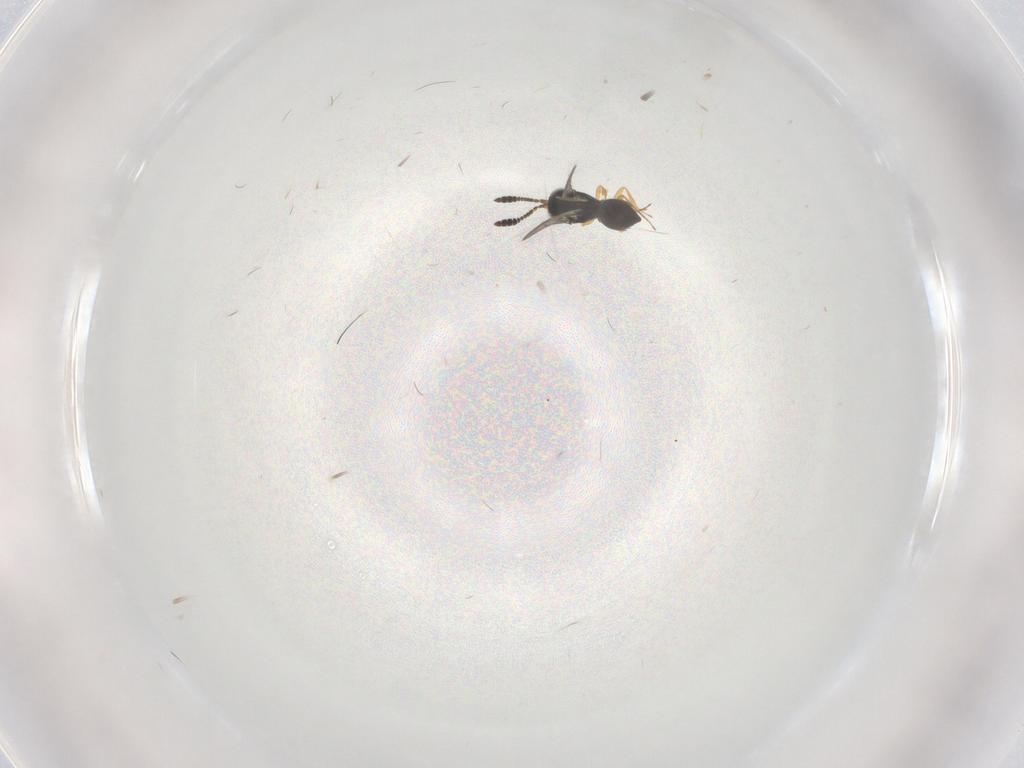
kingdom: Animalia
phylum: Arthropoda
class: Insecta
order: Hymenoptera
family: Scelionidae
